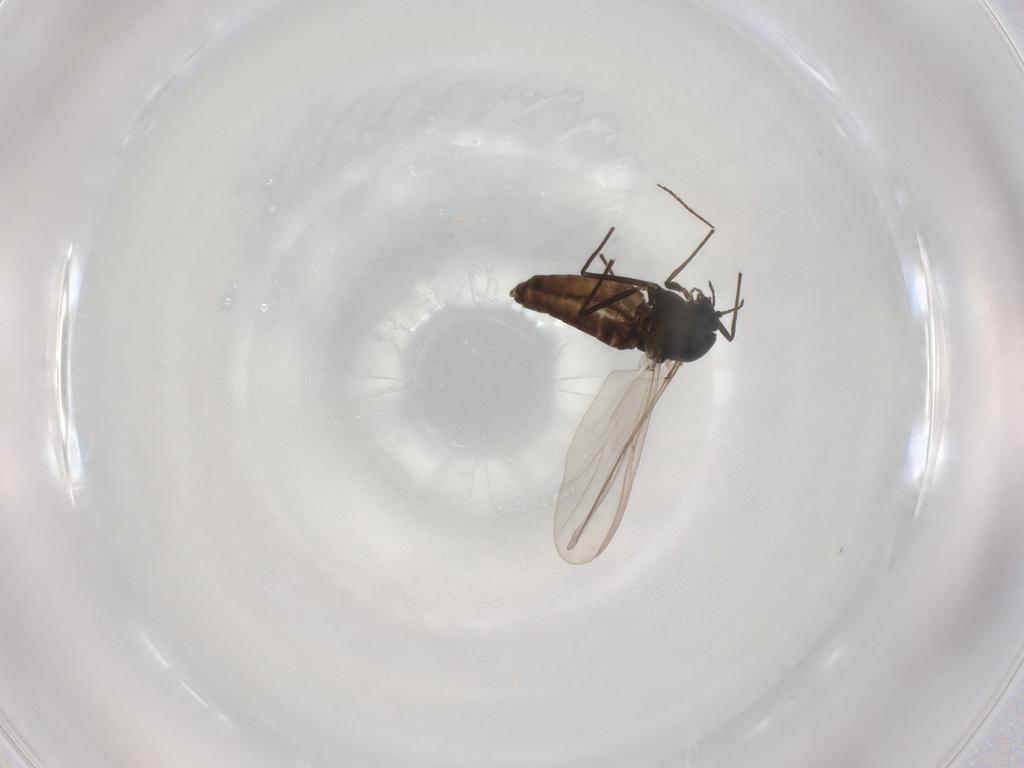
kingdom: Animalia
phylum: Arthropoda
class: Insecta
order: Diptera
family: Chironomidae
